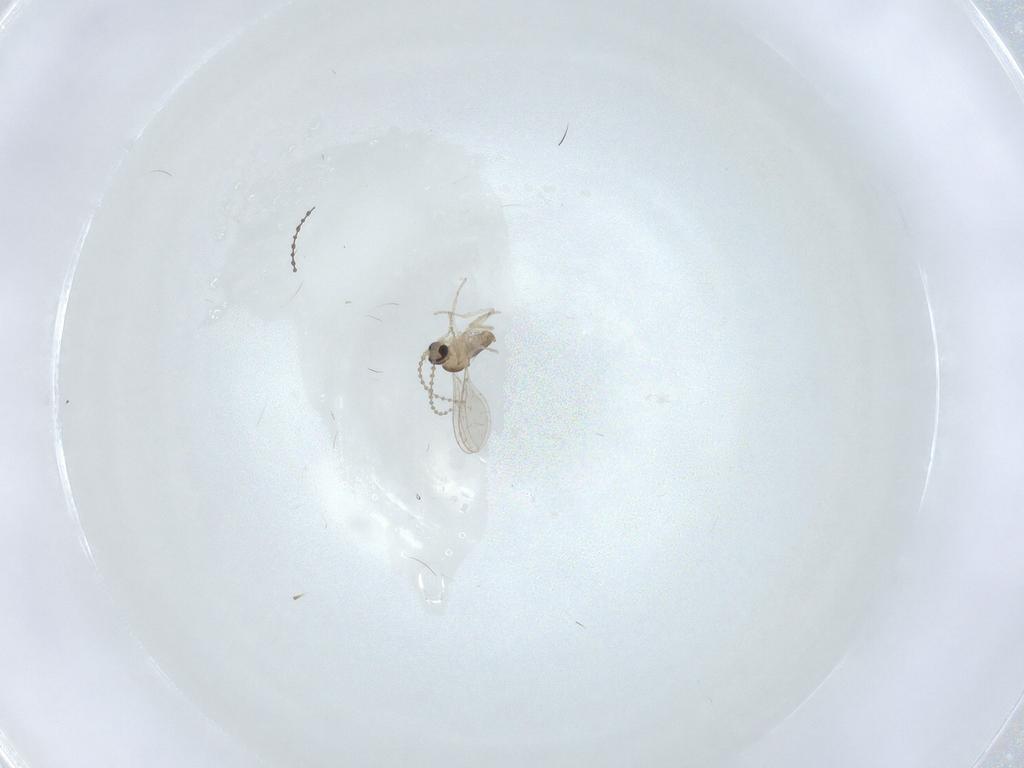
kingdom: Animalia
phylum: Arthropoda
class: Insecta
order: Diptera
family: Cecidomyiidae
